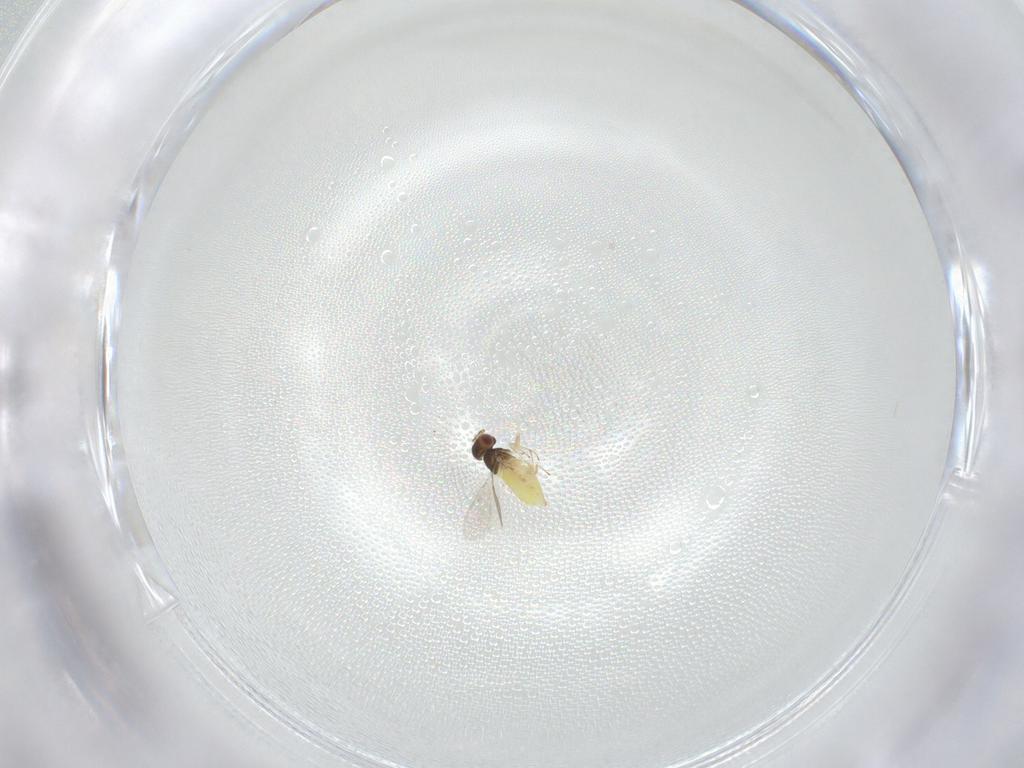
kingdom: Animalia
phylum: Arthropoda
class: Insecta
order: Hymenoptera
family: Trichogrammatidae
